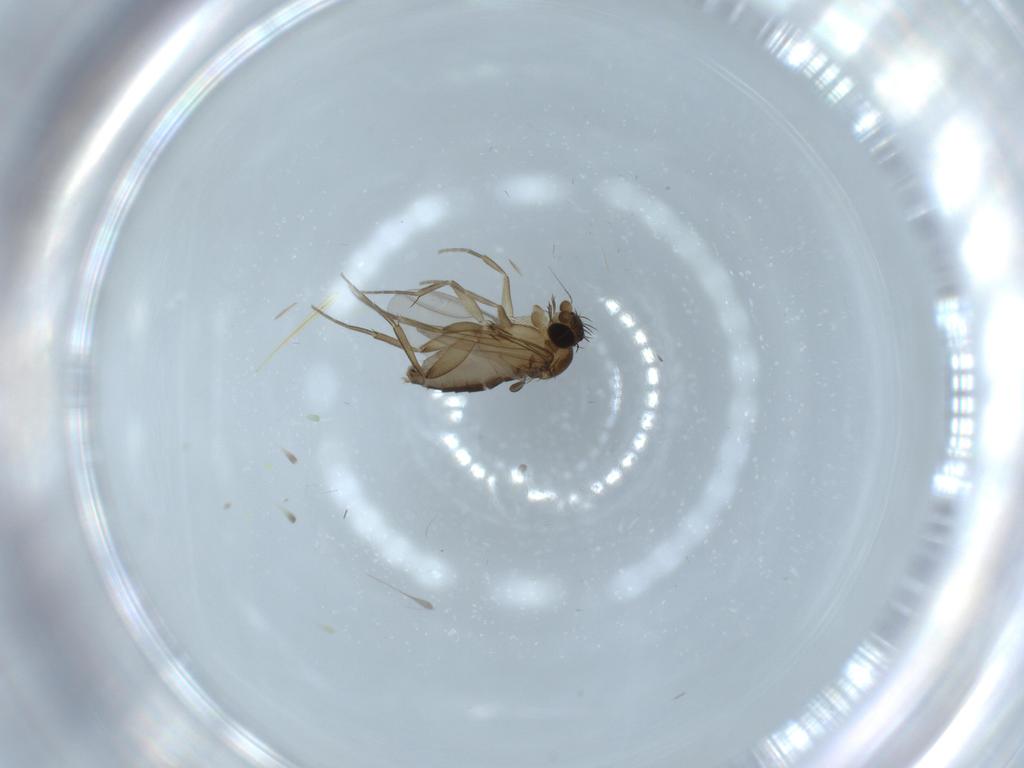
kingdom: Animalia
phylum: Arthropoda
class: Insecta
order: Diptera
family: Phoridae
